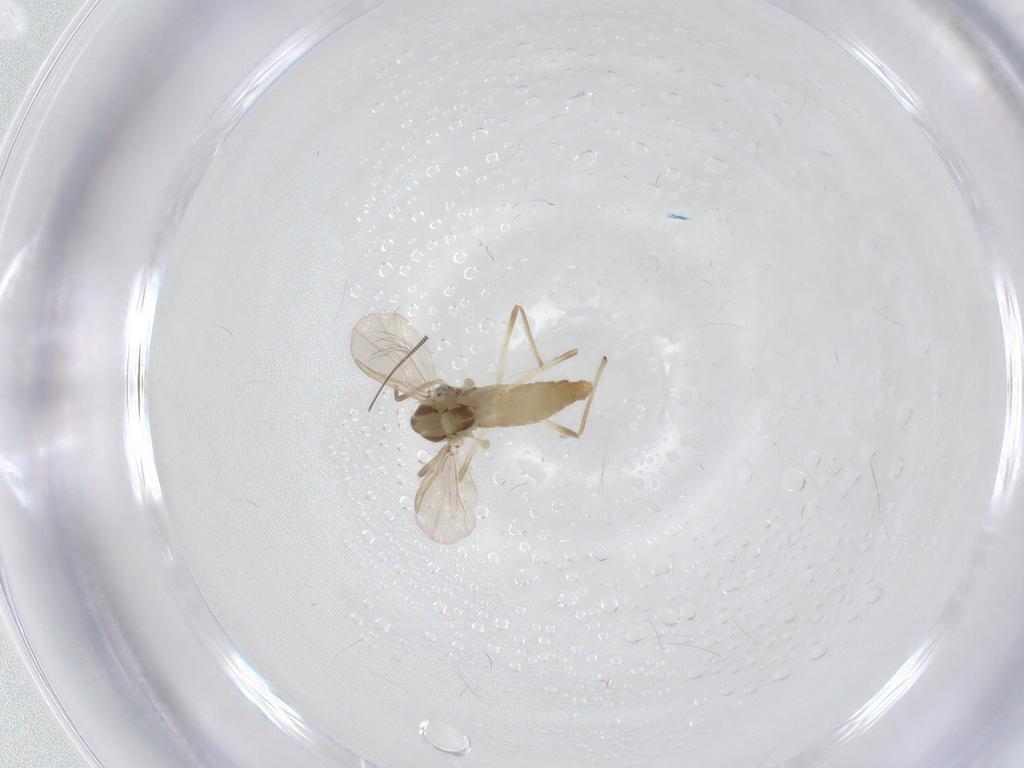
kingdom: Animalia
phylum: Arthropoda
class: Insecta
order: Diptera
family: Chironomidae
